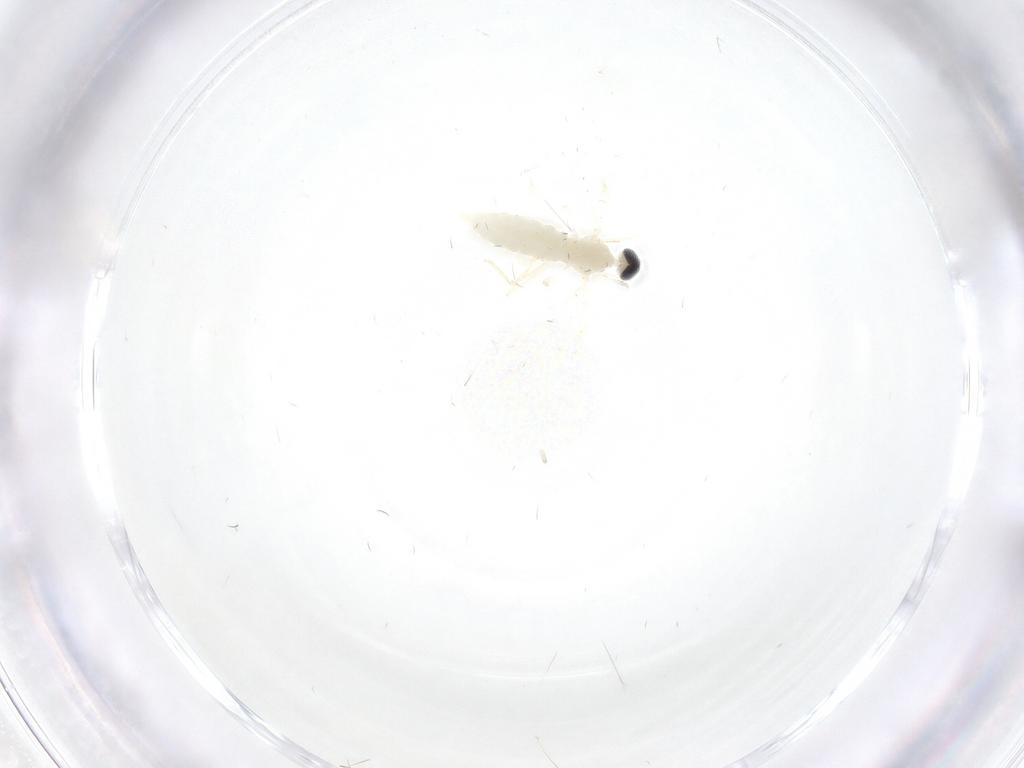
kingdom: Animalia
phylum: Arthropoda
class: Insecta
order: Diptera
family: Cecidomyiidae
